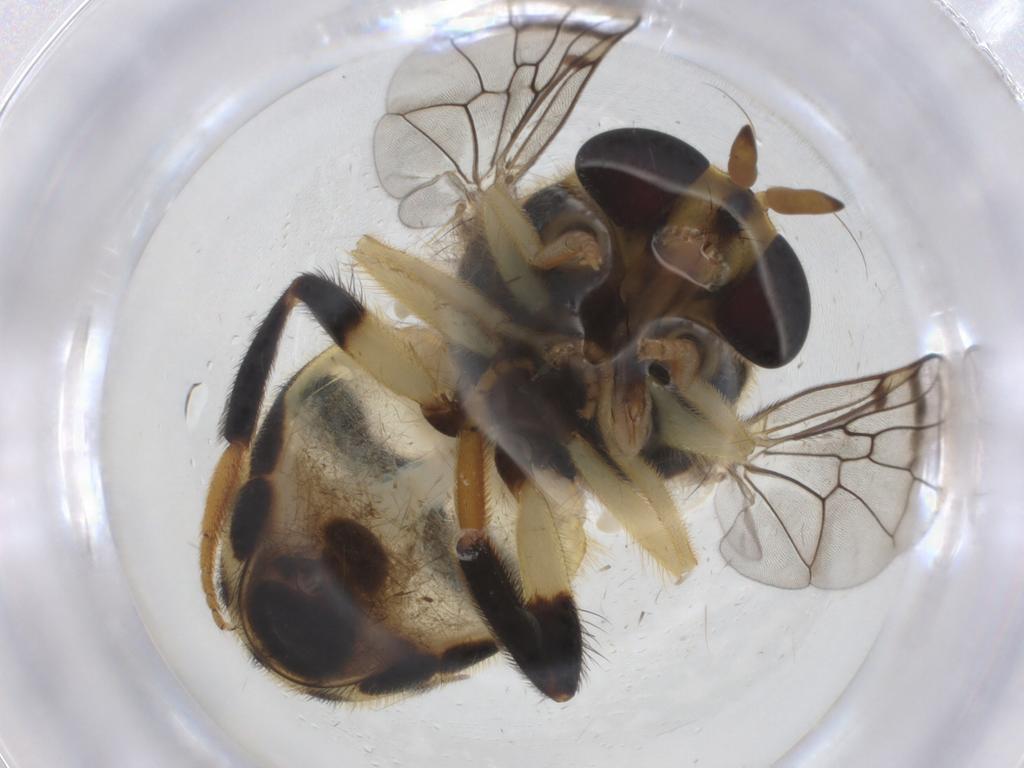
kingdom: Animalia
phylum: Arthropoda
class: Insecta
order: Diptera
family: Syrphidae
